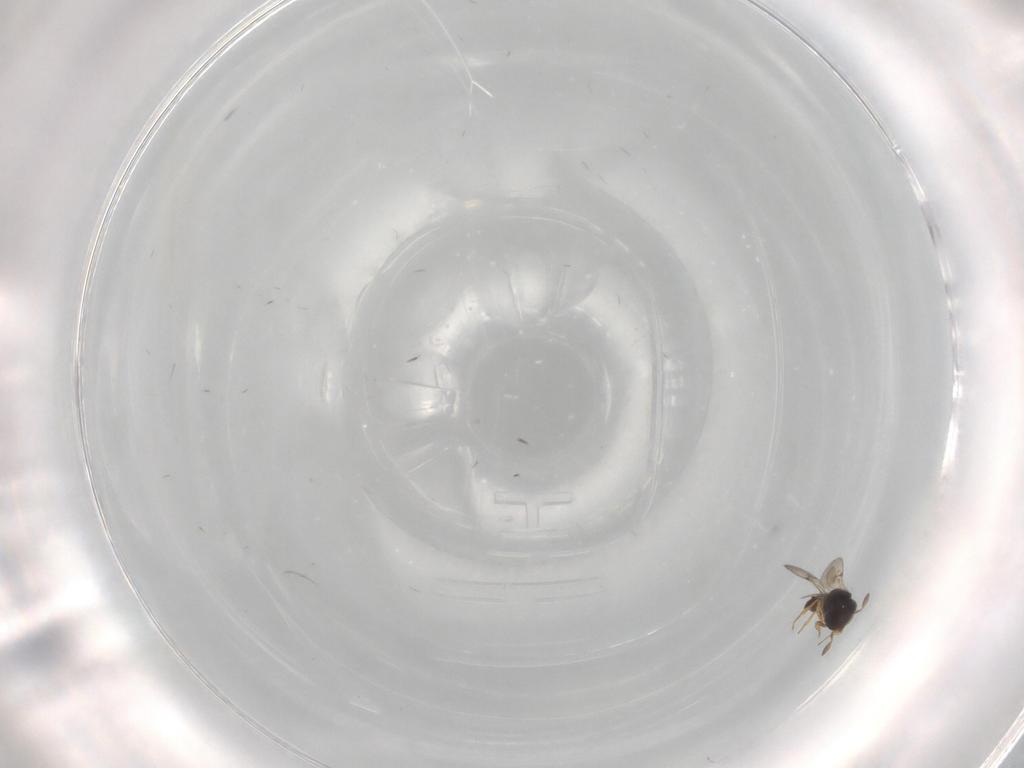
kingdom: Animalia
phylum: Arthropoda
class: Insecta
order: Hymenoptera
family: Scelionidae
